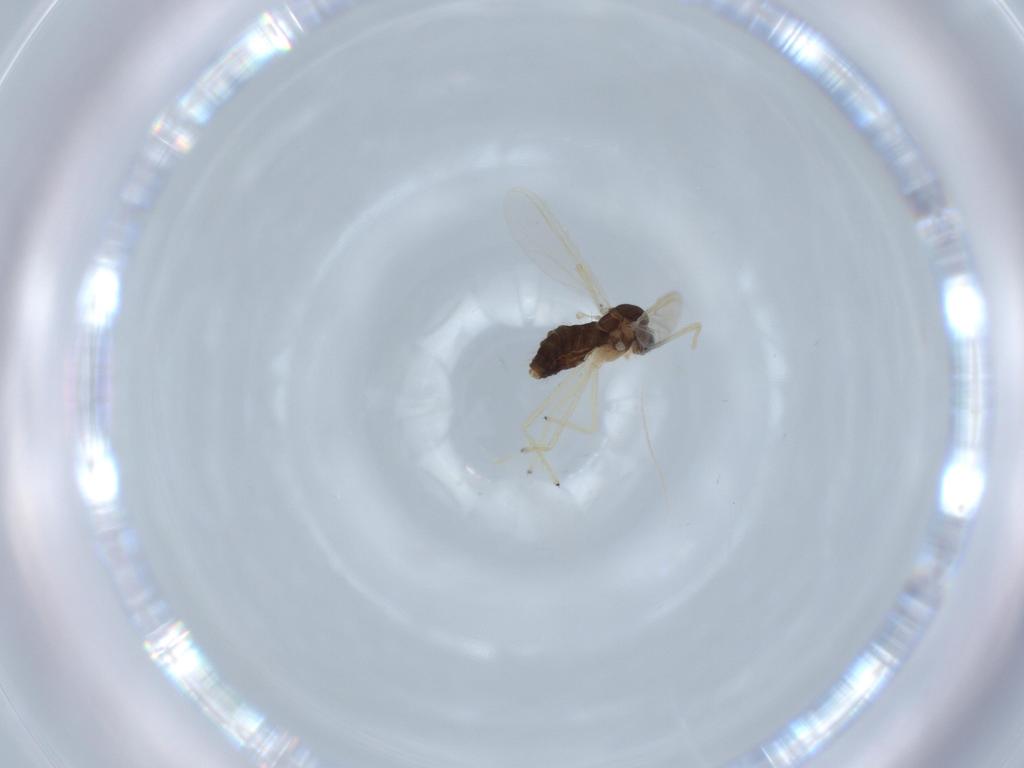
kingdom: Animalia
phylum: Arthropoda
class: Insecta
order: Diptera
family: Chironomidae
